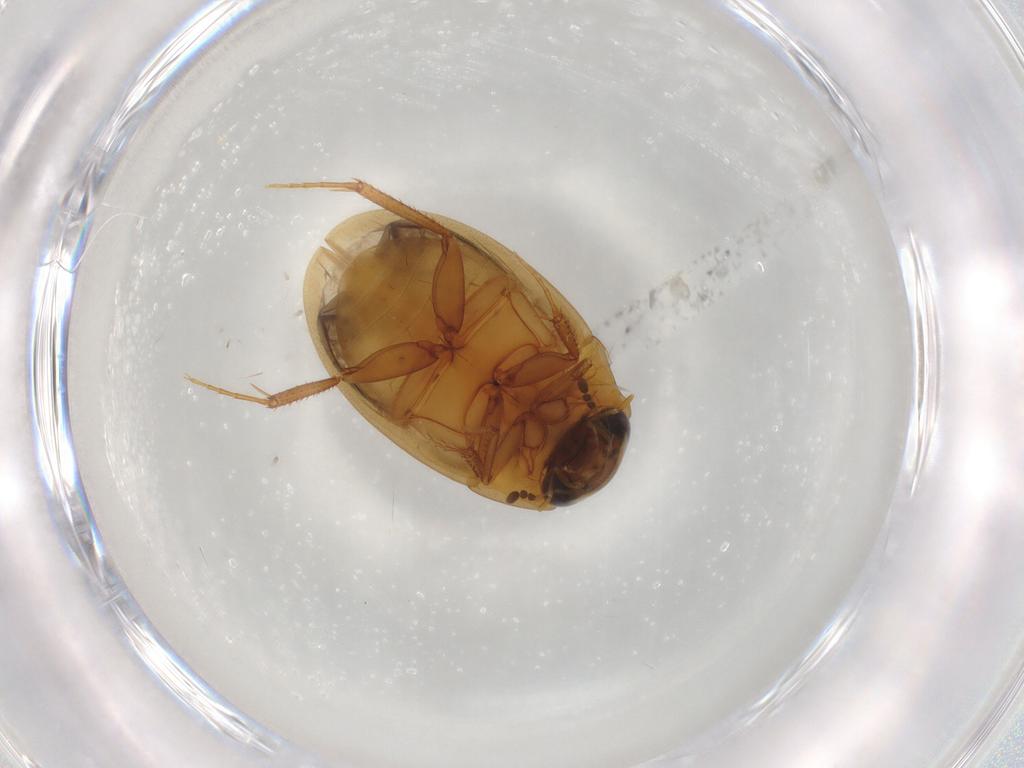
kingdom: Animalia
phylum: Arthropoda
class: Insecta
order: Coleoptera
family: Hydrophilidae
